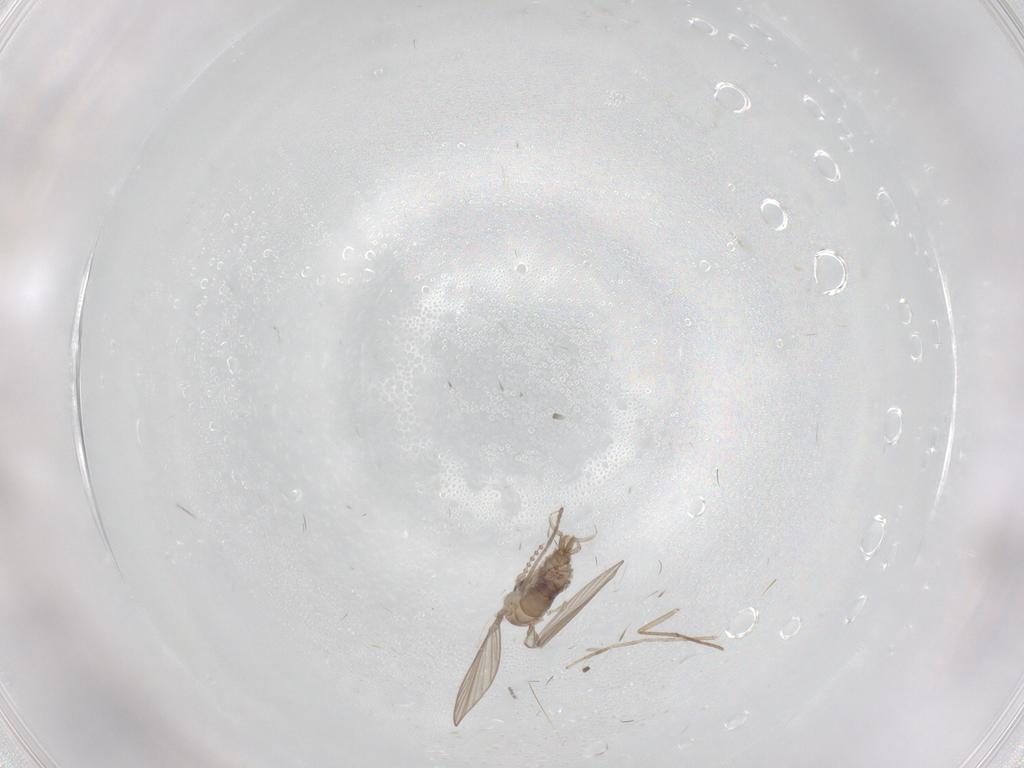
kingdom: Animalia
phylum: Arthropoda
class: Insecta
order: Diptera
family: Psychodidae
